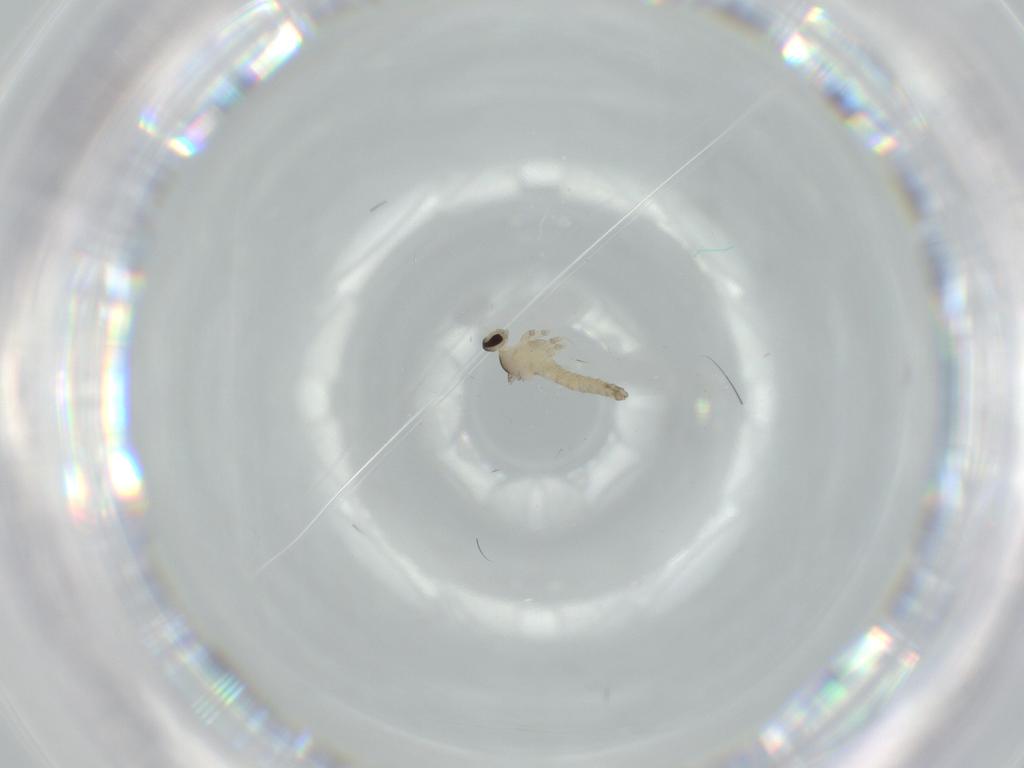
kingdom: Animalia
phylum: Arthropoda
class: Insecta
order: Diptera
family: Cecidomyiidae
